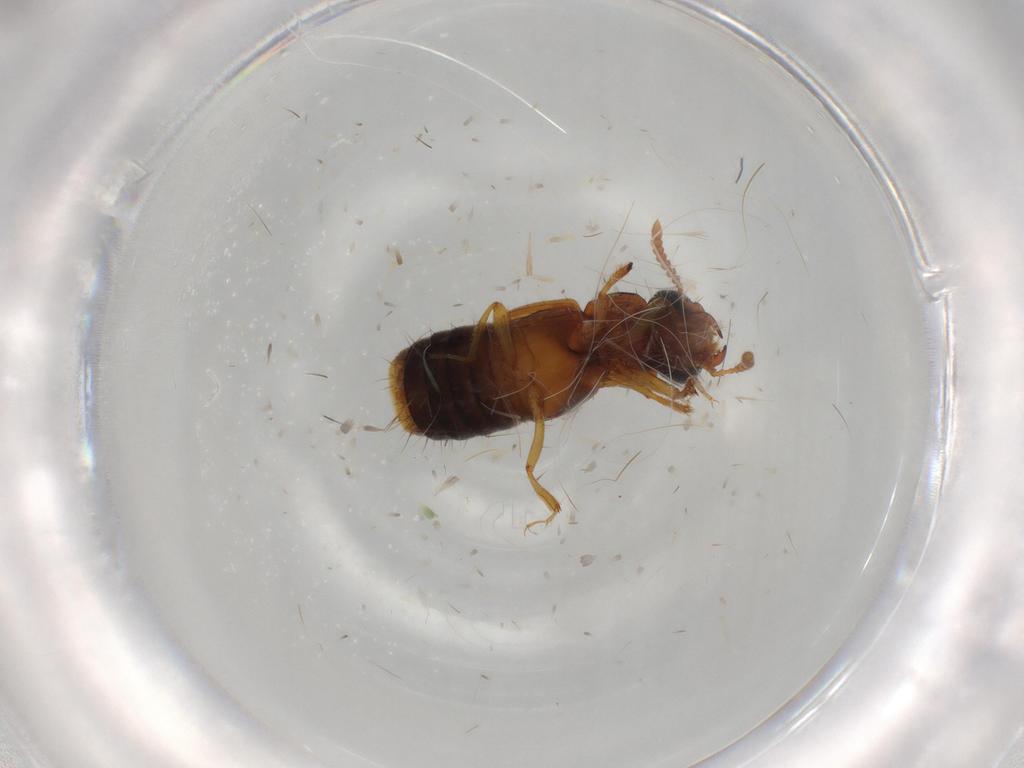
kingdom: Animalia
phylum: Arthropoda
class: Insecta
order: Coleoptera
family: Staphylinidae
